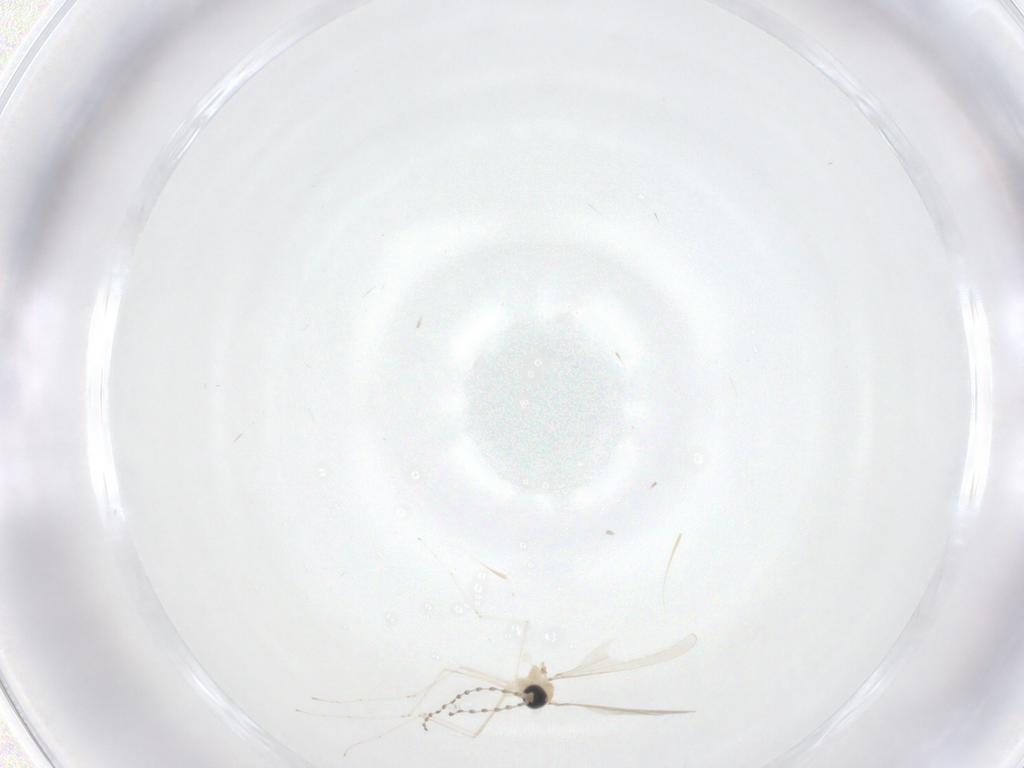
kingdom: Animalia
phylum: Arthropoda
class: Insecta
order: Diptera
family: Cecidomyiidae
